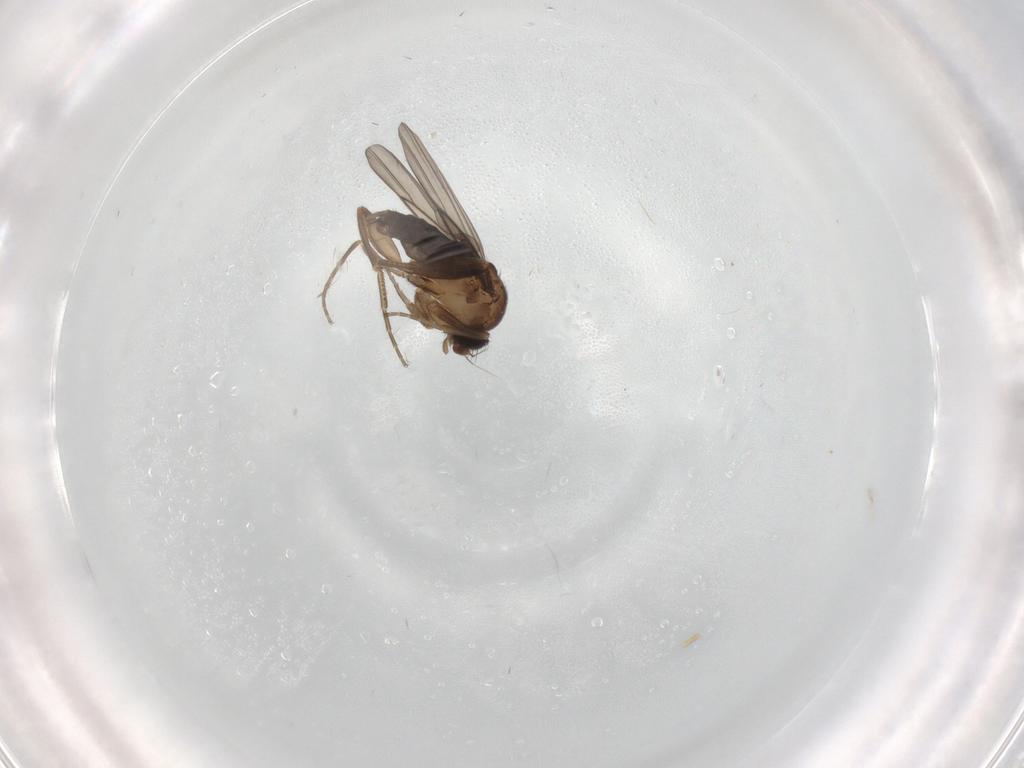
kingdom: Animalia
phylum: Arthropoda
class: Insecta
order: Diptera
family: Phoridae
